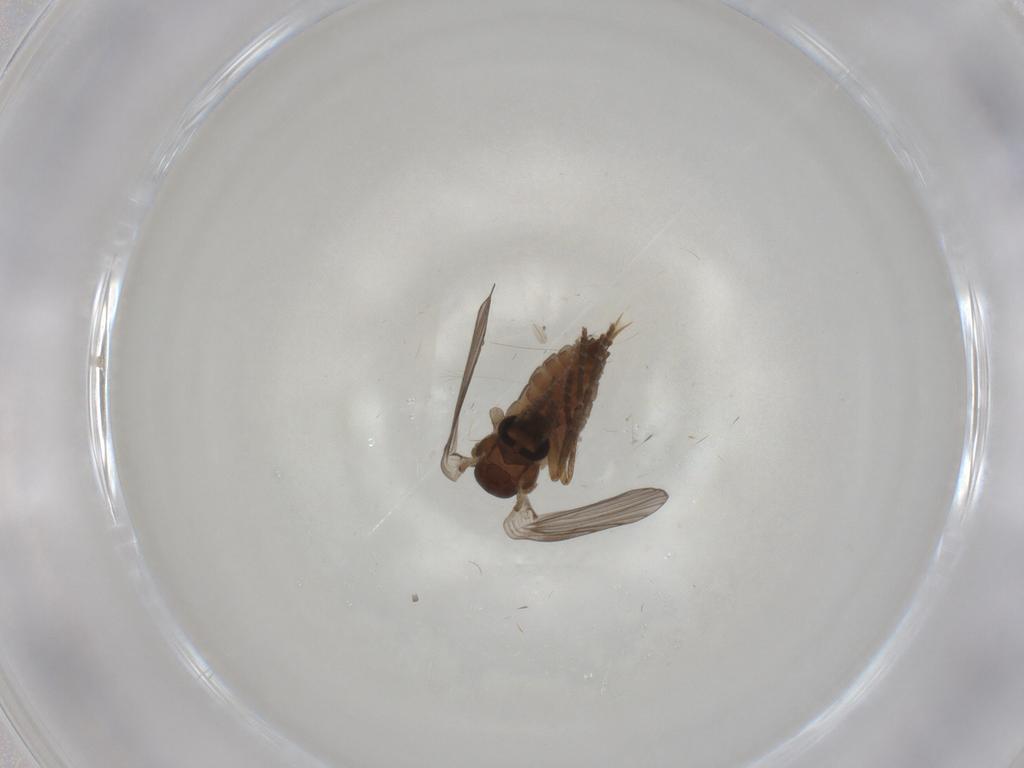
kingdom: Animalia
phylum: Arthropoda
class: Insecta
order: Diptera
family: Psychodidae
